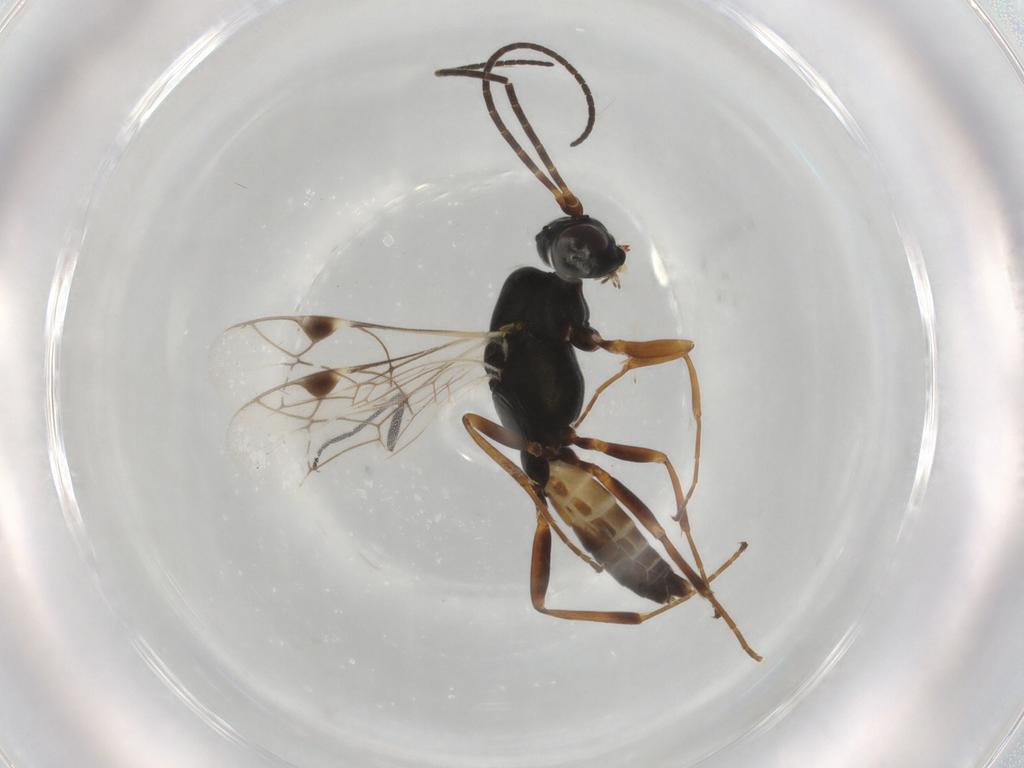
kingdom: Animalia
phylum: Arthropoda
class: Insecta
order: Hymenoptera
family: Ichneumonidae
